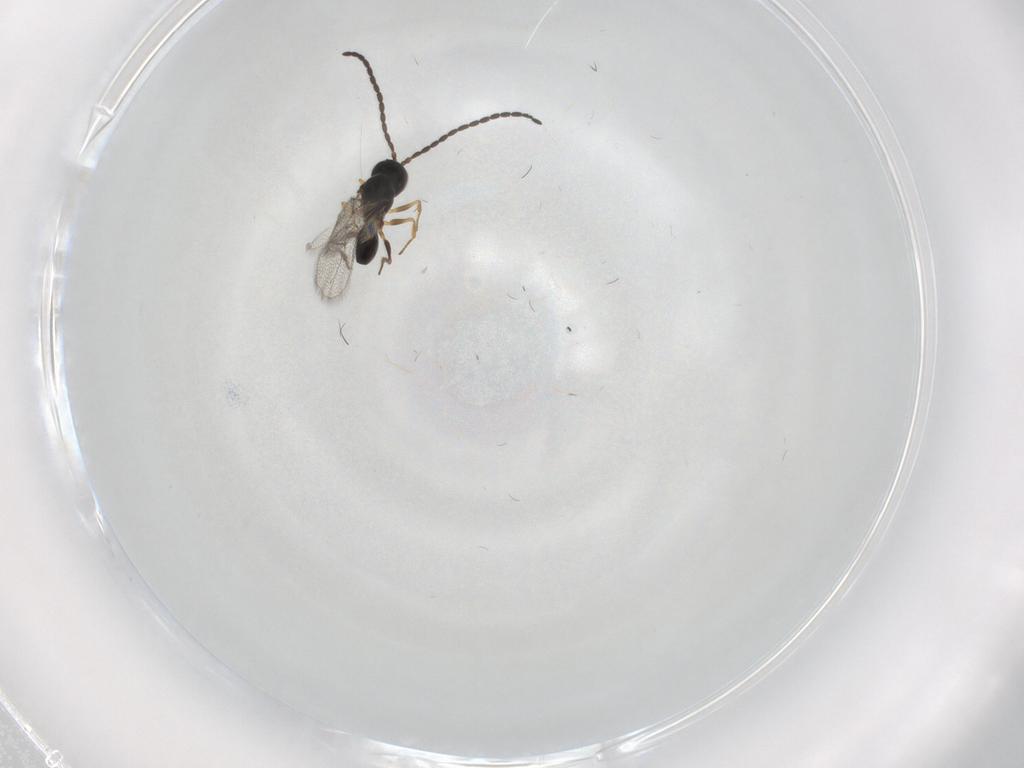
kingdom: Animalia
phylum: Arthropoda
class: Insecta
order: Hymenoptera
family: Figitidae
